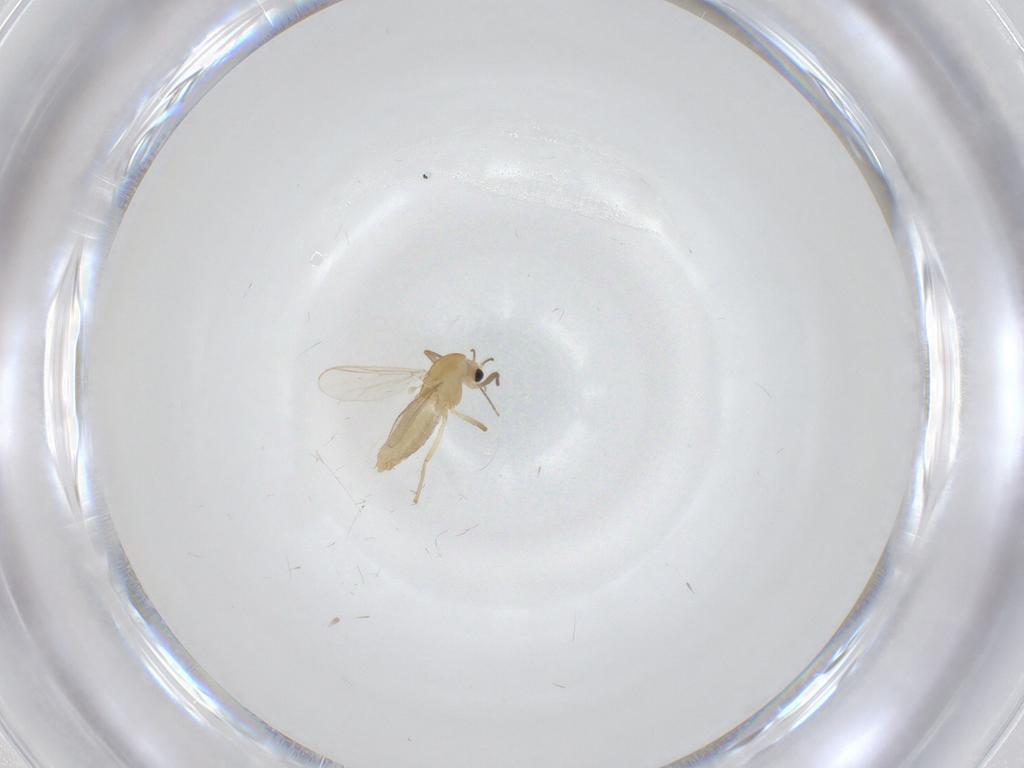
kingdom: Animalia
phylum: Arthropoda
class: Insecta
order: Diptera
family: Chironomidae
